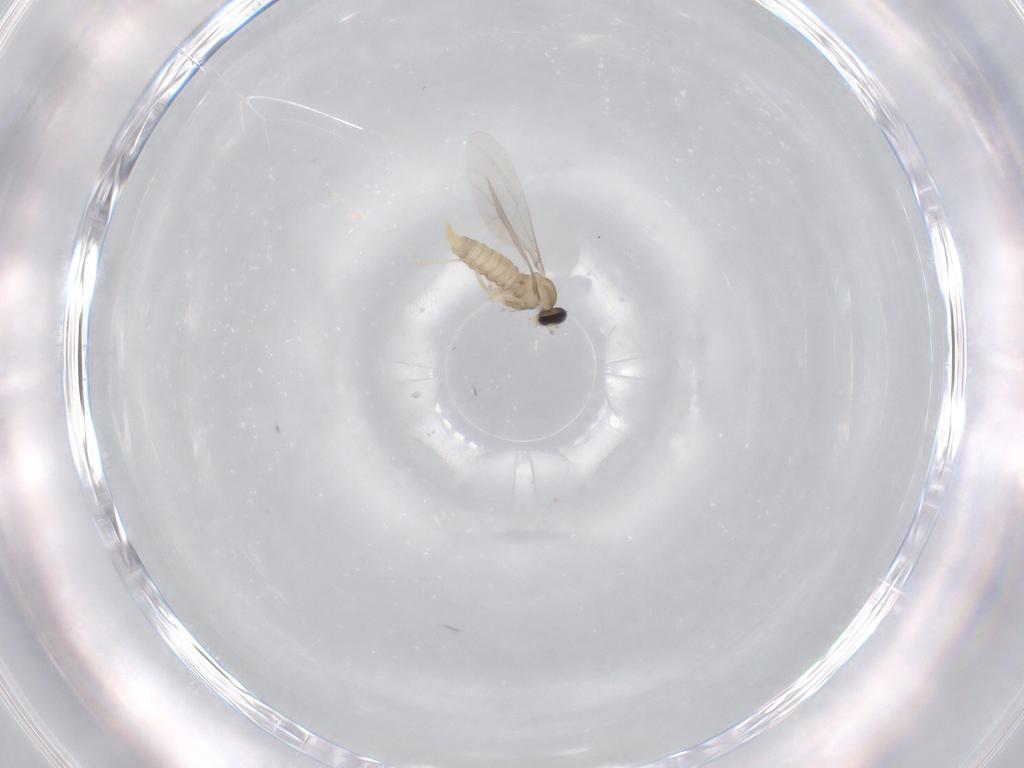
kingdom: Animalia
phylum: Arthropoda
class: Insecta
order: Diptera
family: Cecidomyiidae
